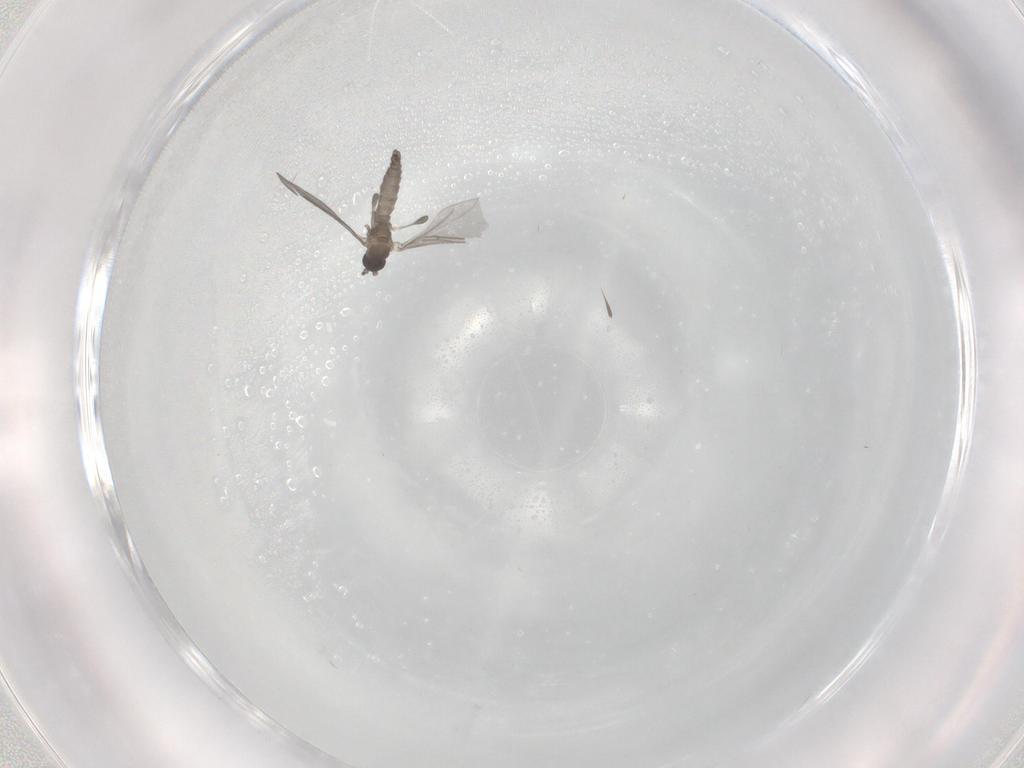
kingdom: Animalia
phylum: Arthropoda
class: Insecta
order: Diptera
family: Sciaridae
